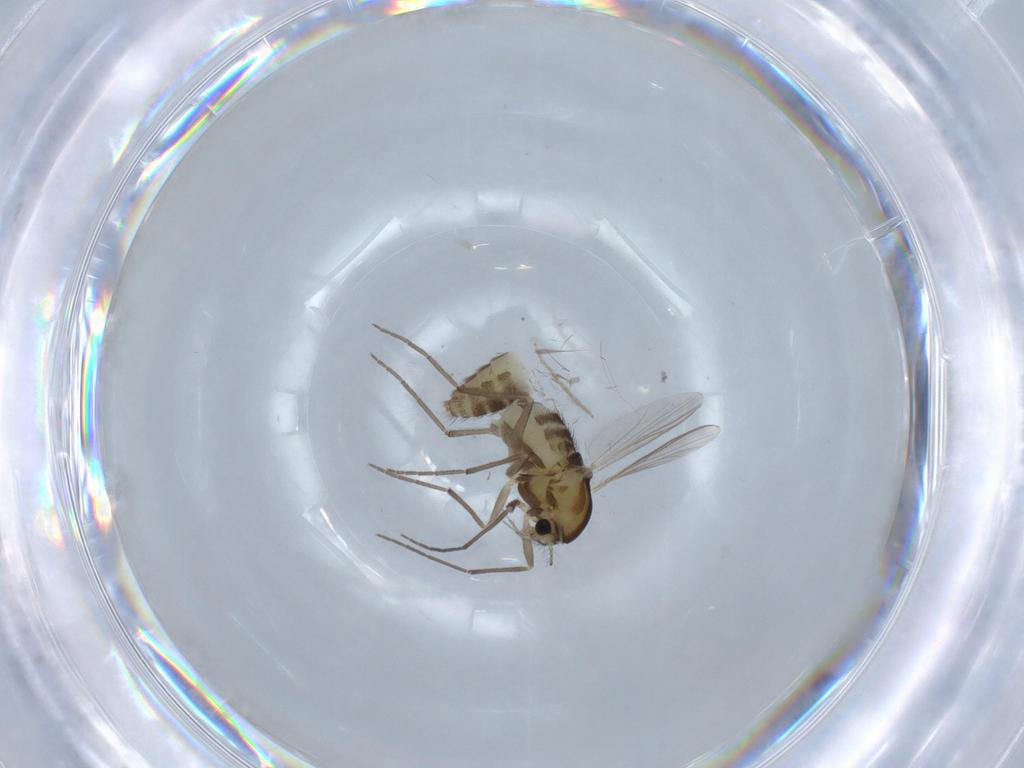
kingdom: Animalia
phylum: Arthropoda
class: Insecta
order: Diptera
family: Chironomidae
